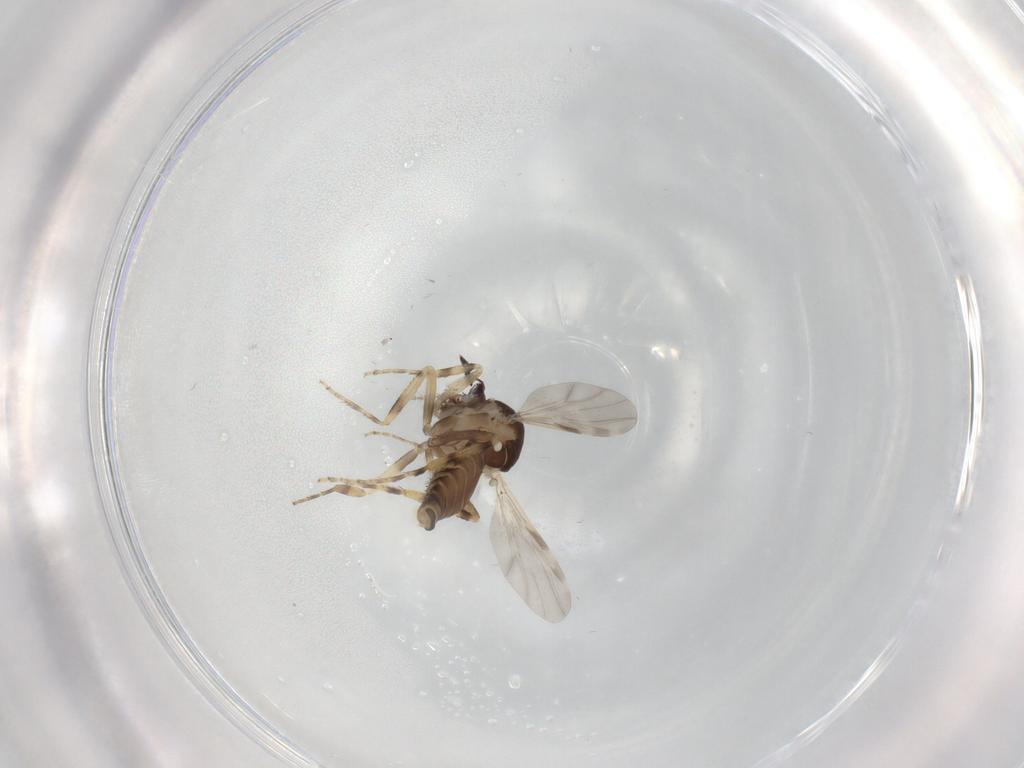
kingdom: Animalia
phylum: Arthropoda
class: Insecta
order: Diptera
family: Ceratopogonidae
